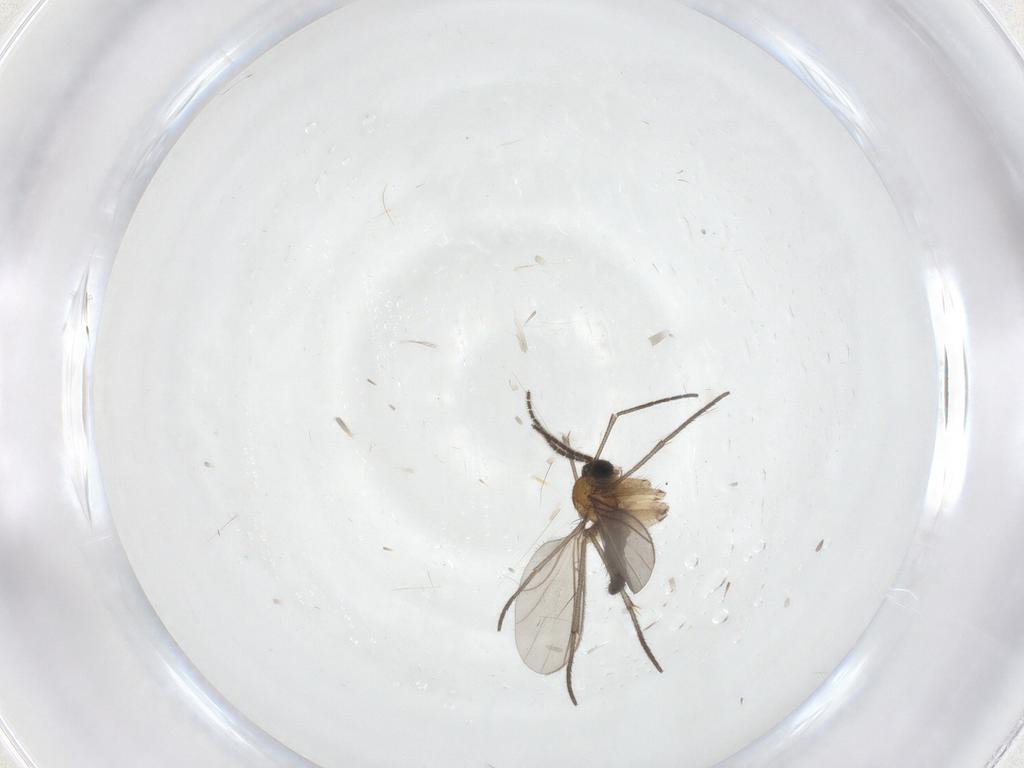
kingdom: Animalia
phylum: Arthropoda
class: Insecta
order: Diptera
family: Sciaridae
